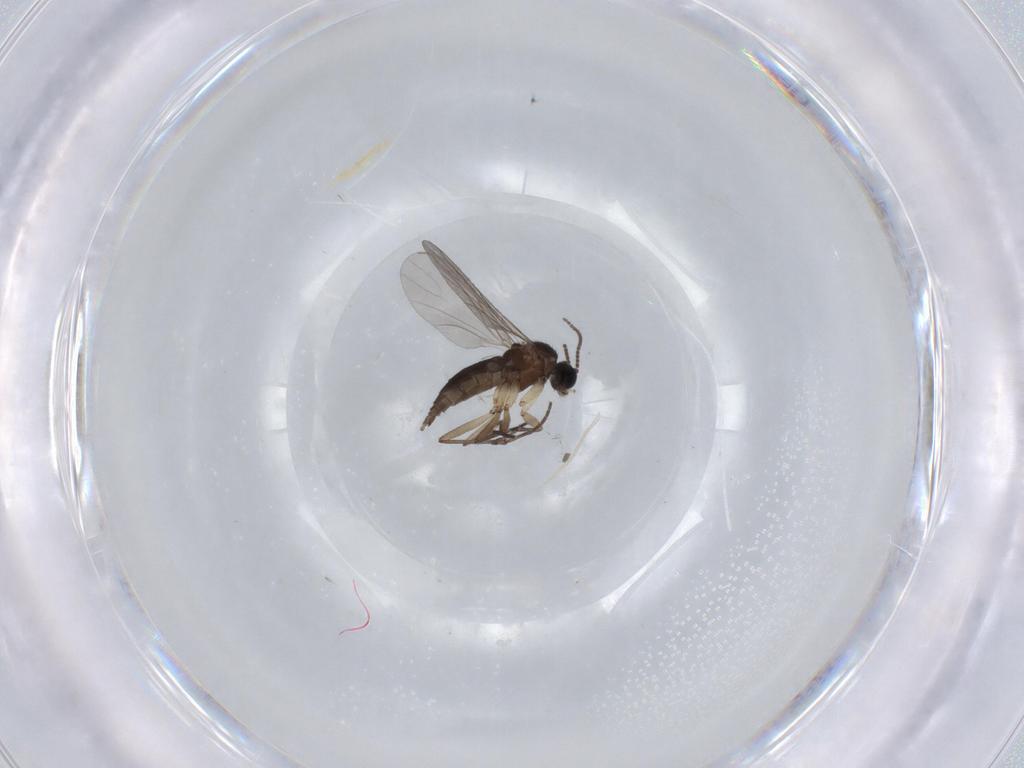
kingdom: Animalia
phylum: Arthropoda
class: Insecta
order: Diptera
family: Sciaridae
